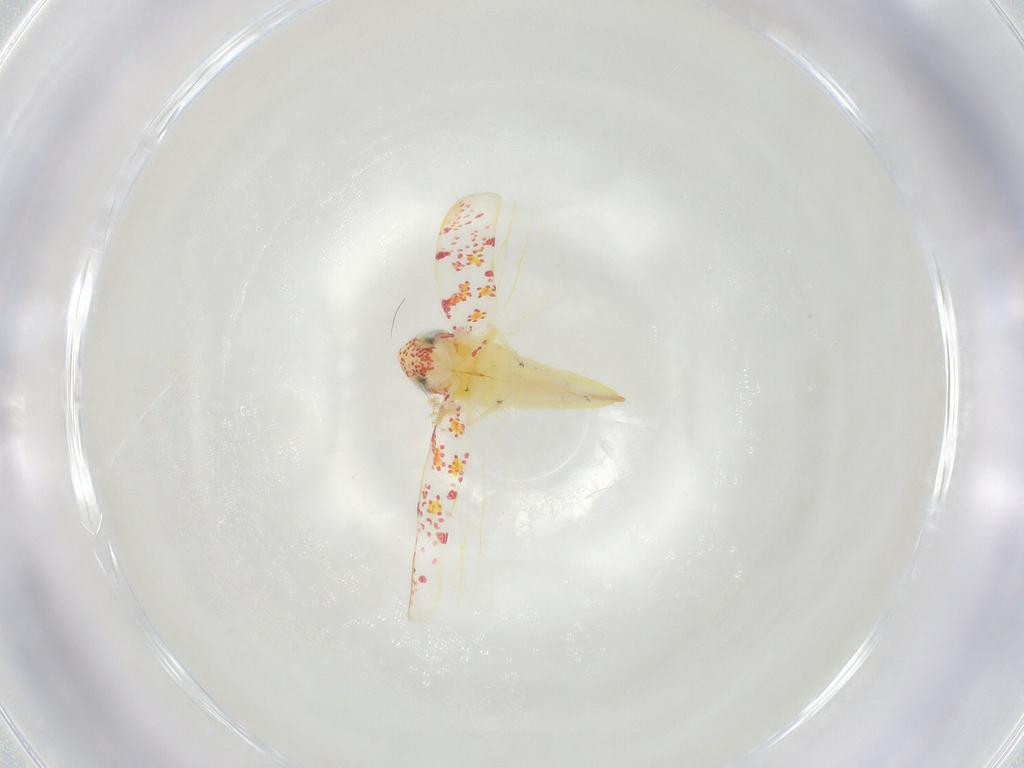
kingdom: Animalia
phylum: Arthropoda
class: Insecta
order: Hemiptera
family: Cicadellidae
